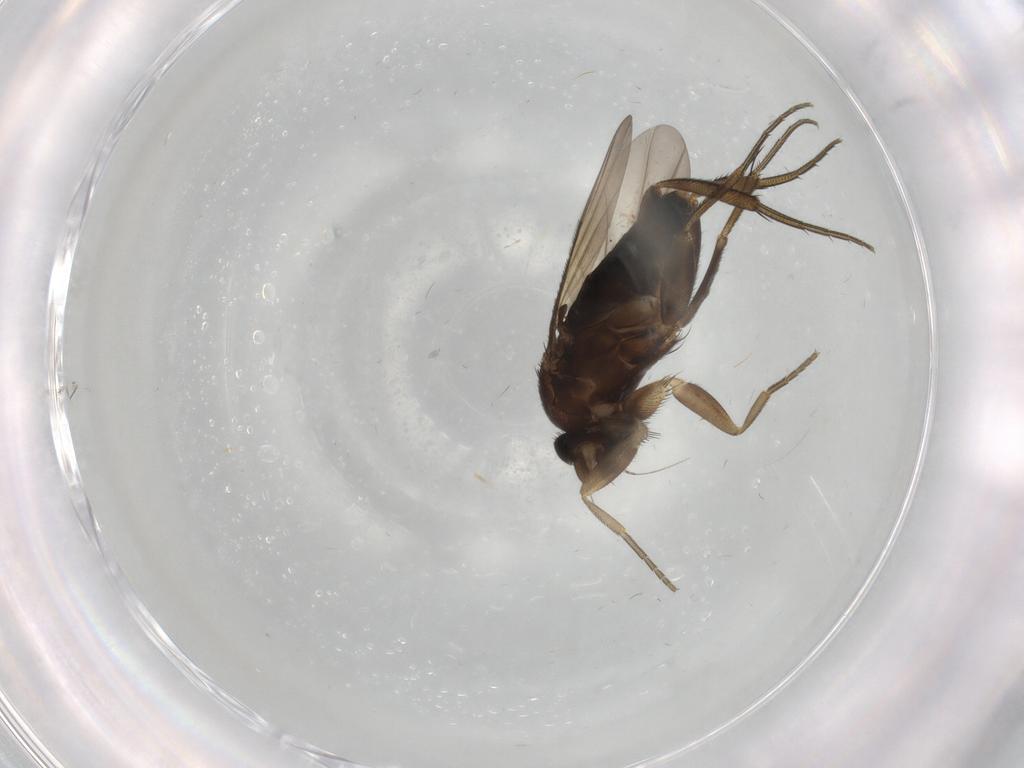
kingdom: Animalia
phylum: Arthropoda
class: Insecta
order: Diptera
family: Phoridae
